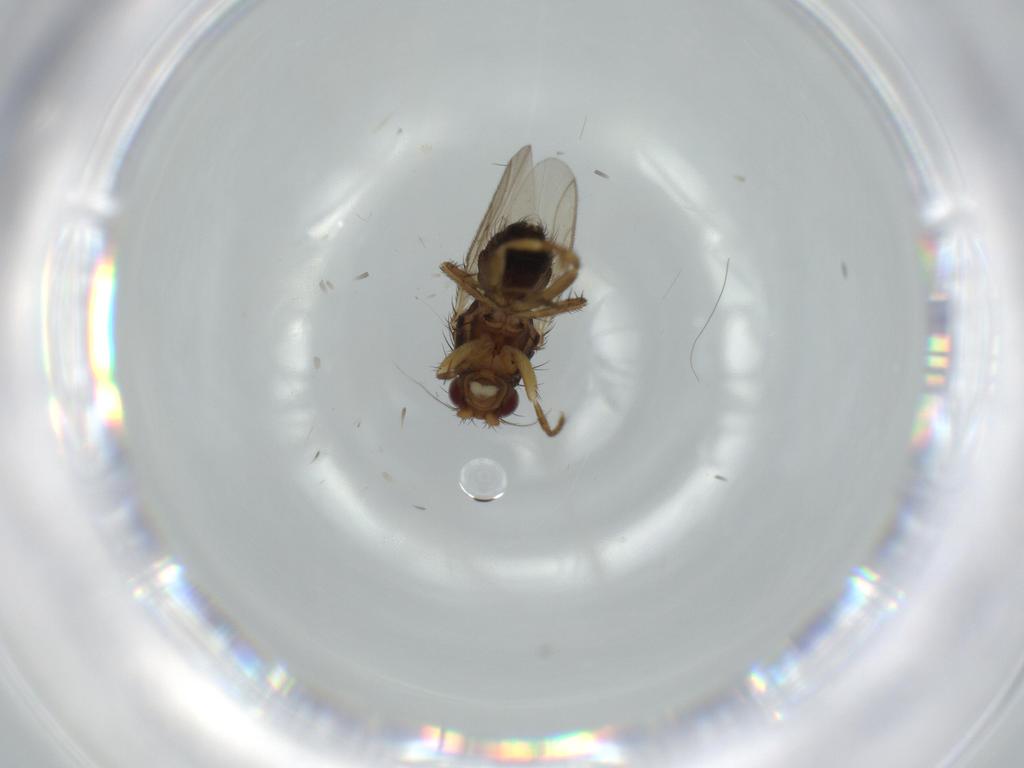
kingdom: Animalia
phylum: Arthropoda
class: Insecta
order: Diptera
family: Sphaeroceridae
